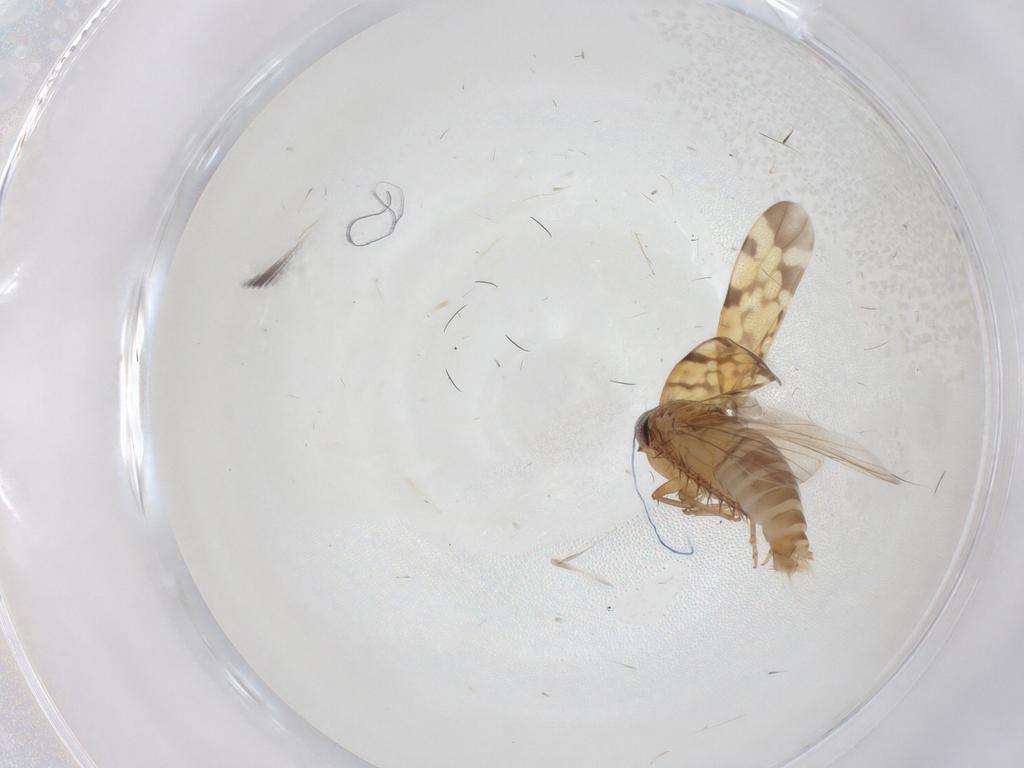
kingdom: Animalia
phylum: Arthropoda
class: Insecta
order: Hemiptera
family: Cicadellidae
